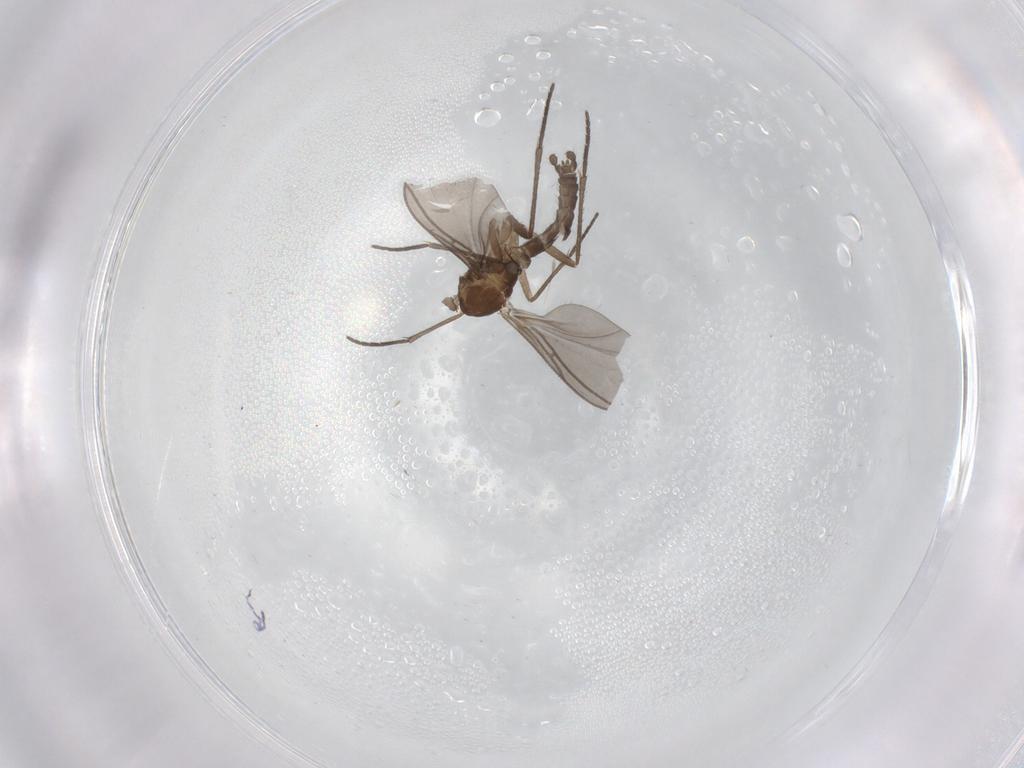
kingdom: Animalia
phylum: Arthropoda
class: Insecta
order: Diptera
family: Sciaridae
